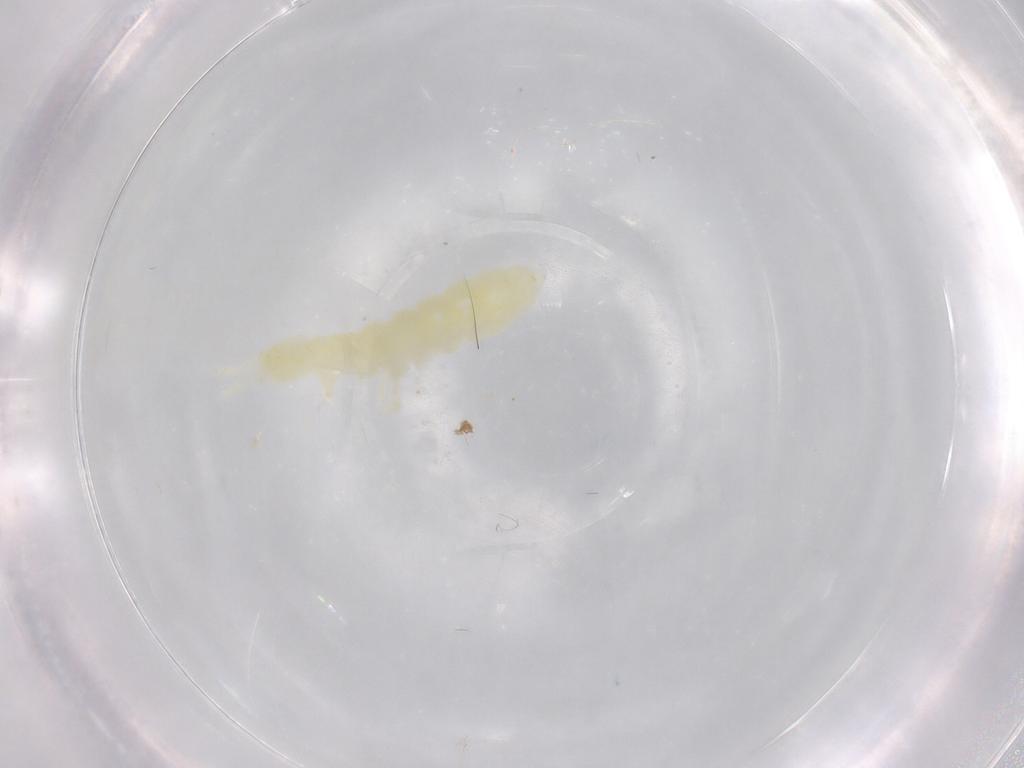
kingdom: Animalia
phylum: Arthropoda
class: Collembola
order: Poduromorpha
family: Onychiuridae
